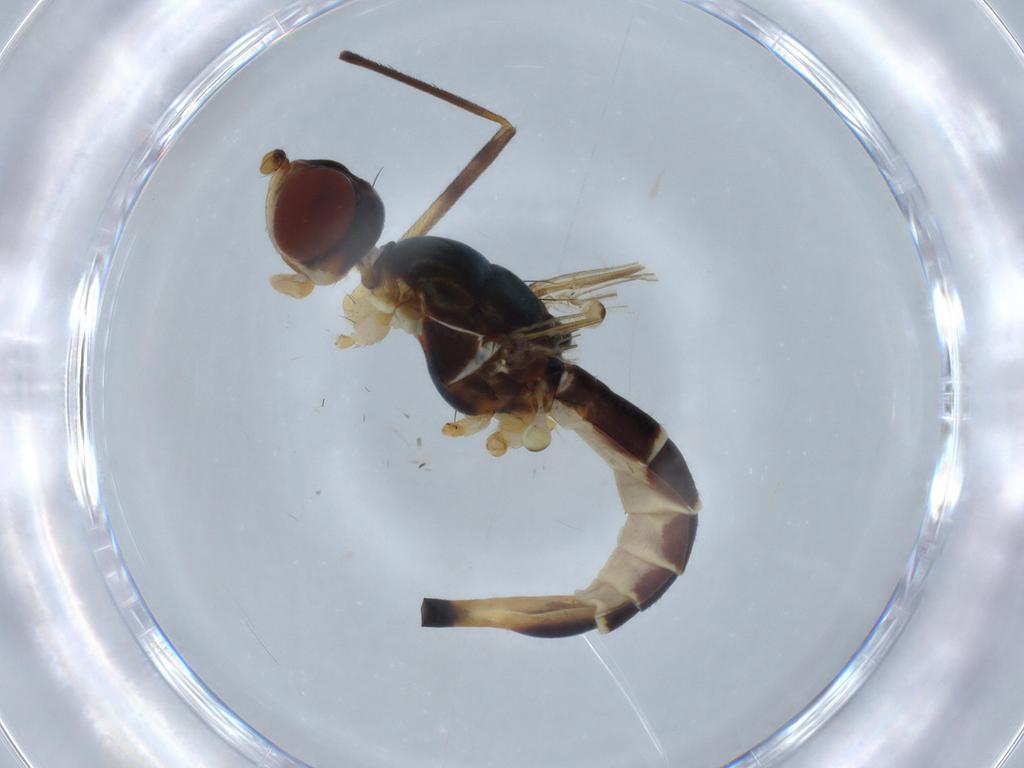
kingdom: Animalia
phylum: Arthropoda
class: Insecta
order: Diptera
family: Micropezidae
